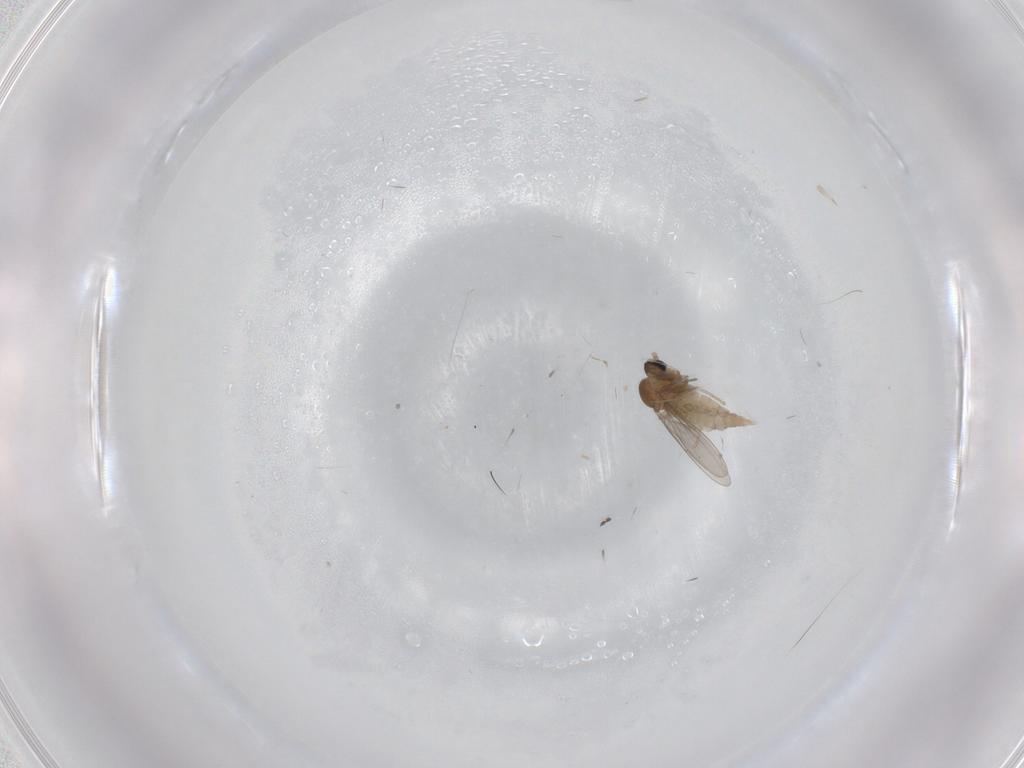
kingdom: Animalia
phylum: Arthropoda
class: Insecta
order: Diptera
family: Cecidomyiidae
